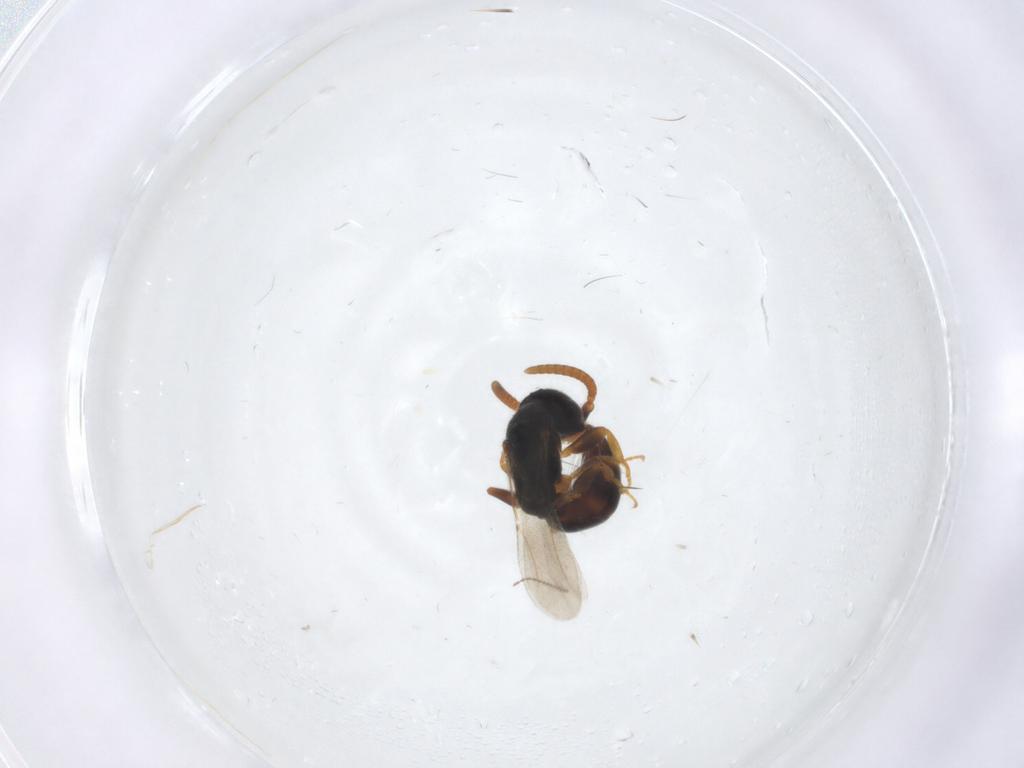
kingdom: Animalia
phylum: Arthropoda
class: Insecta
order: Hymenoptera
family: Bethylidae
